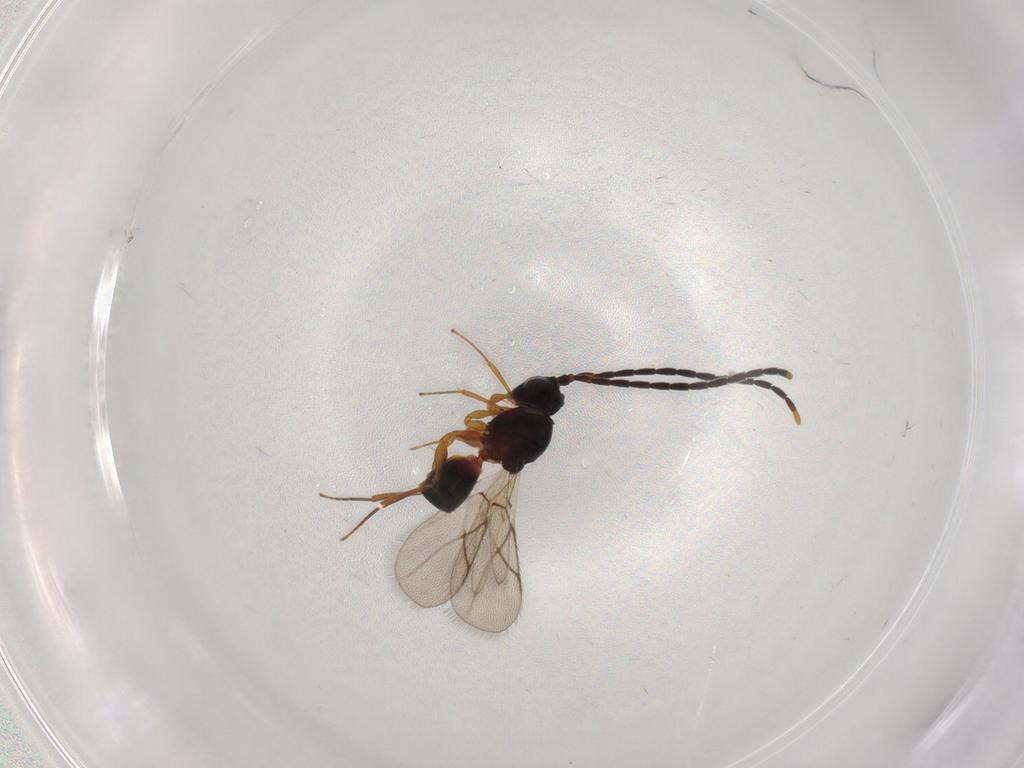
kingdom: Animalia
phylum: Arthropoda
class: Insecta
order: Hymenoptera
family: Figitidae
